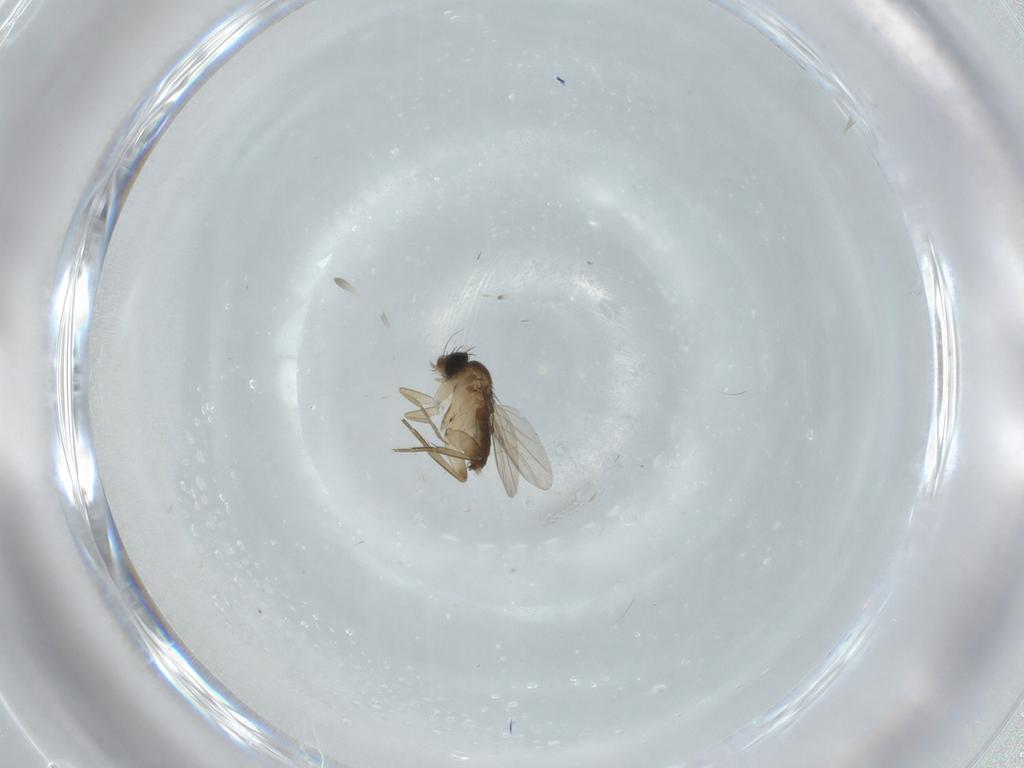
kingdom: Animalia
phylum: Arthropoda
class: Insecta
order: Diptera
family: Phoridae
